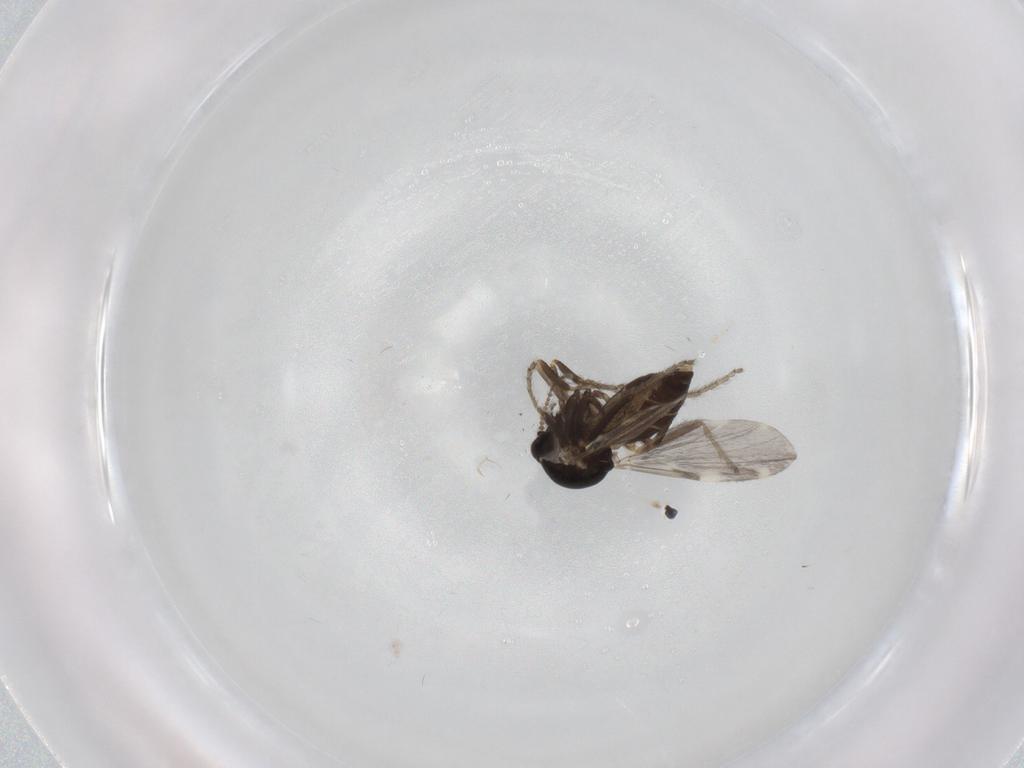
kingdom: Animalia
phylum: Arthropoda
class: Insecta
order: Diptera
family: Ceratopogonidae
